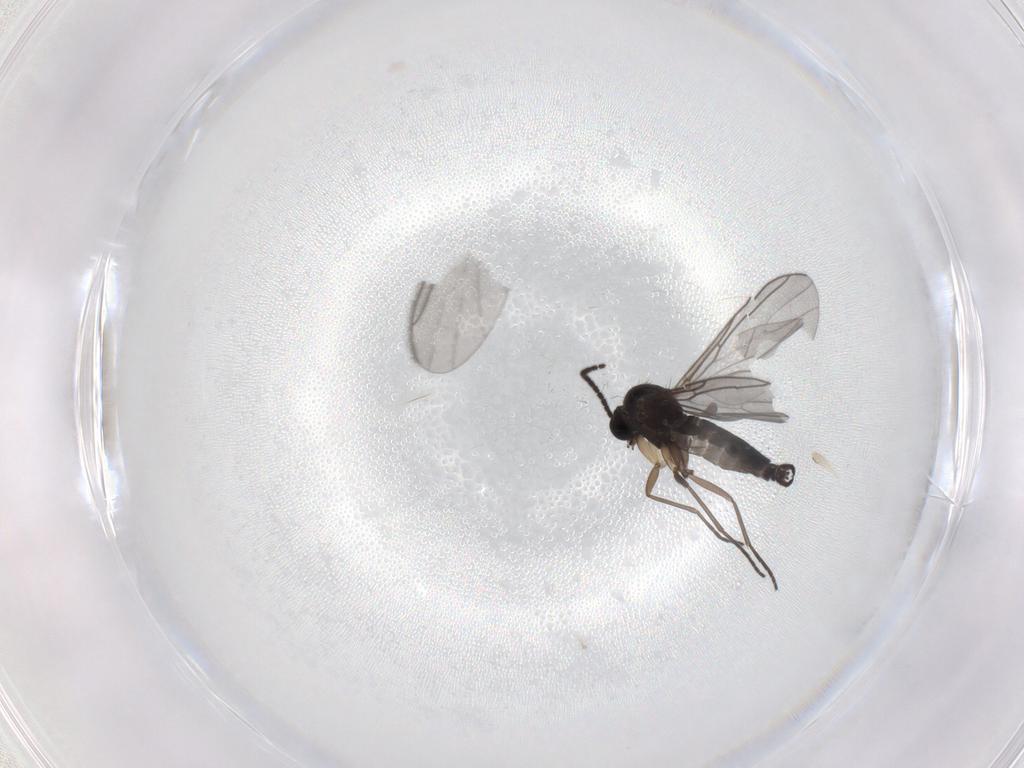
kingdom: Animalia
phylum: Arthropoda
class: Insecta
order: Diptera
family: Sciaridae
